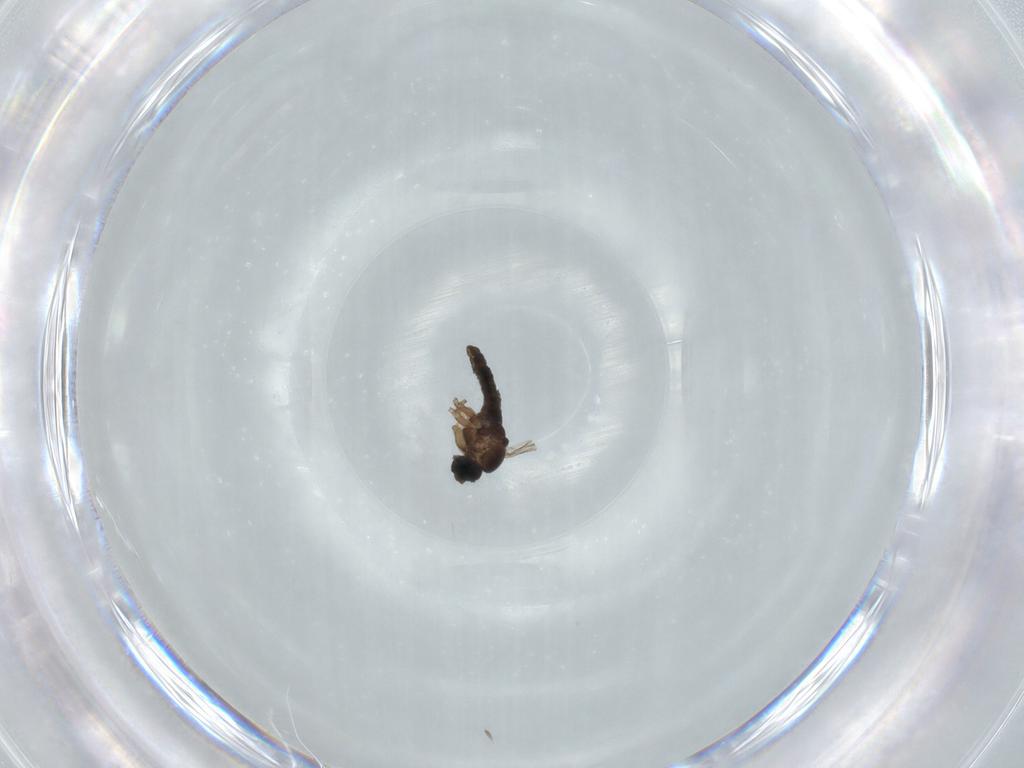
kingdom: Animalia
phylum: Arthropoda
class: Insecta
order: Diptera
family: Sciaridae
